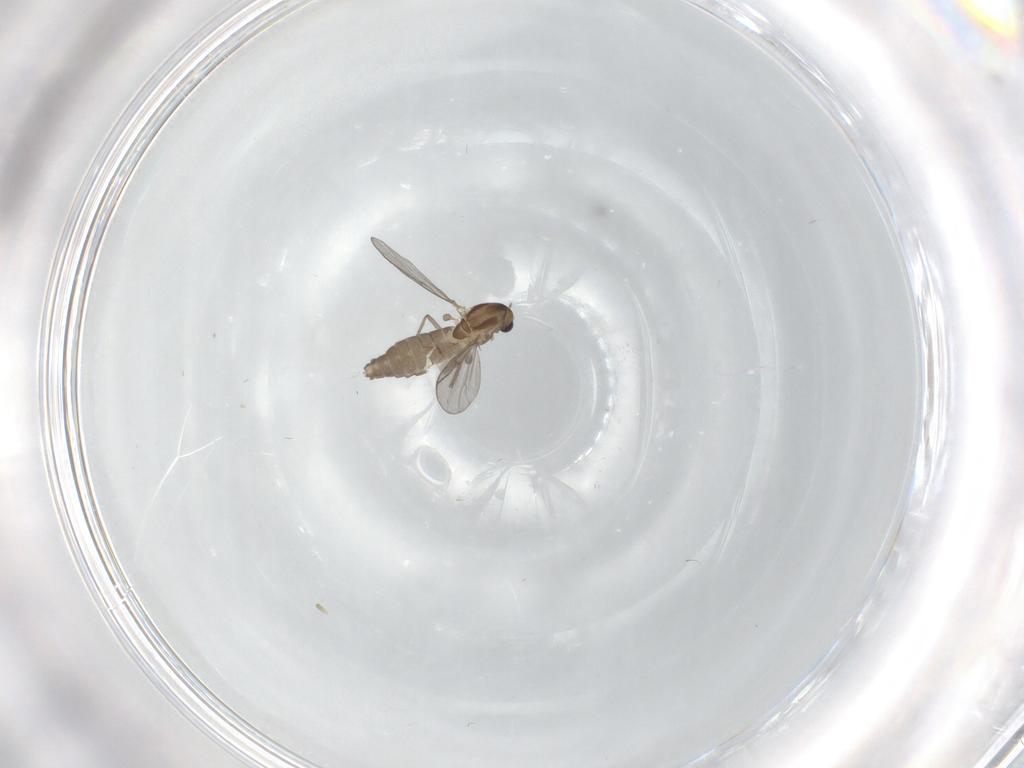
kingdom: Animalia
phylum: Arthropoda
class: Insecta
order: Diptera
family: Chironomidae
